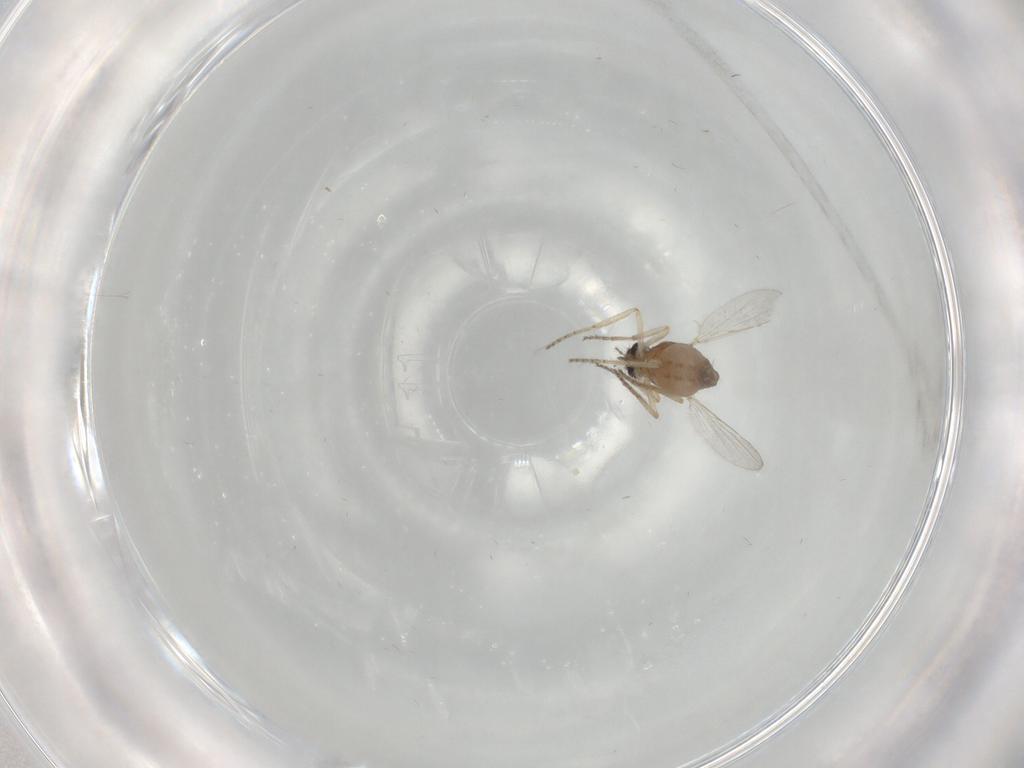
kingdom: Animalia
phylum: Arthropoda
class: Insecta
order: Diptera
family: Ceratopogonidae
